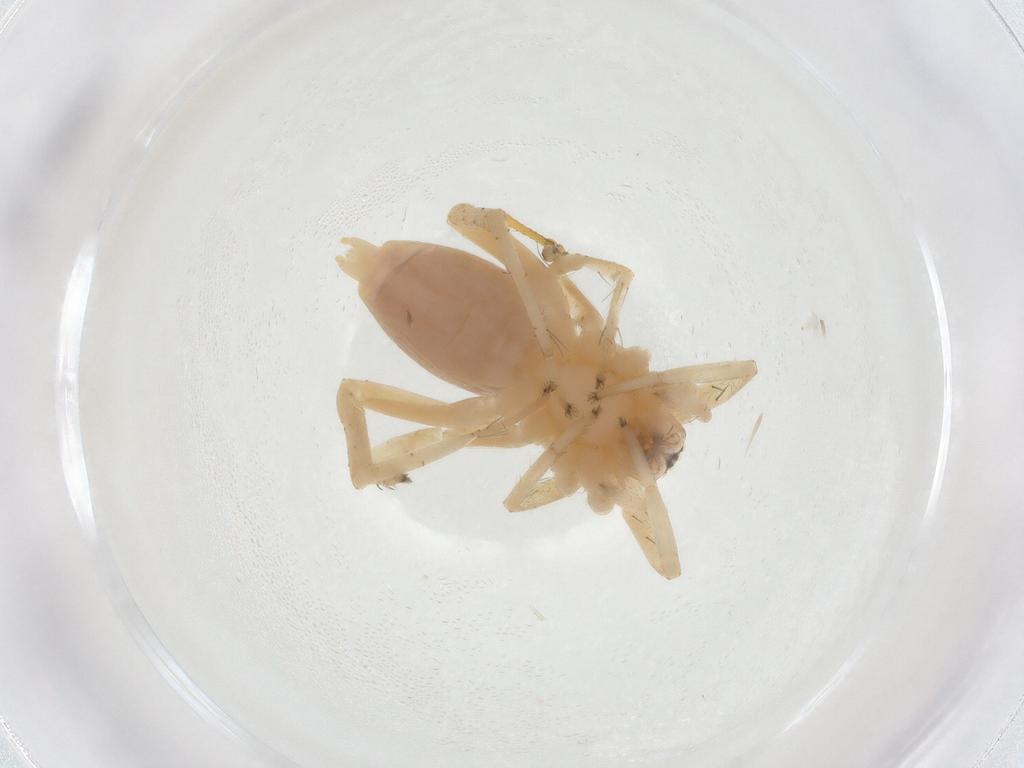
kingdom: Animalia
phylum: Arthropoda
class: Arachnida
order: Araneae
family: Anyphaenidae
